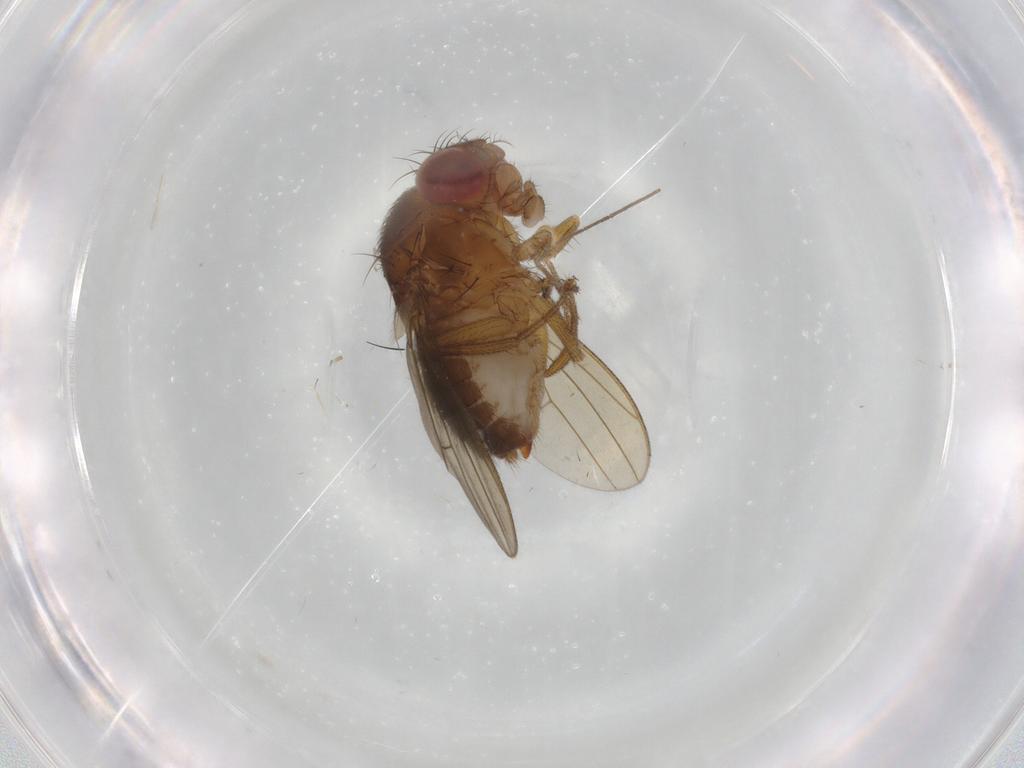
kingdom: Animalia
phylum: Arthropoda
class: Insecta
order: Diptera
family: Drosophilidae
